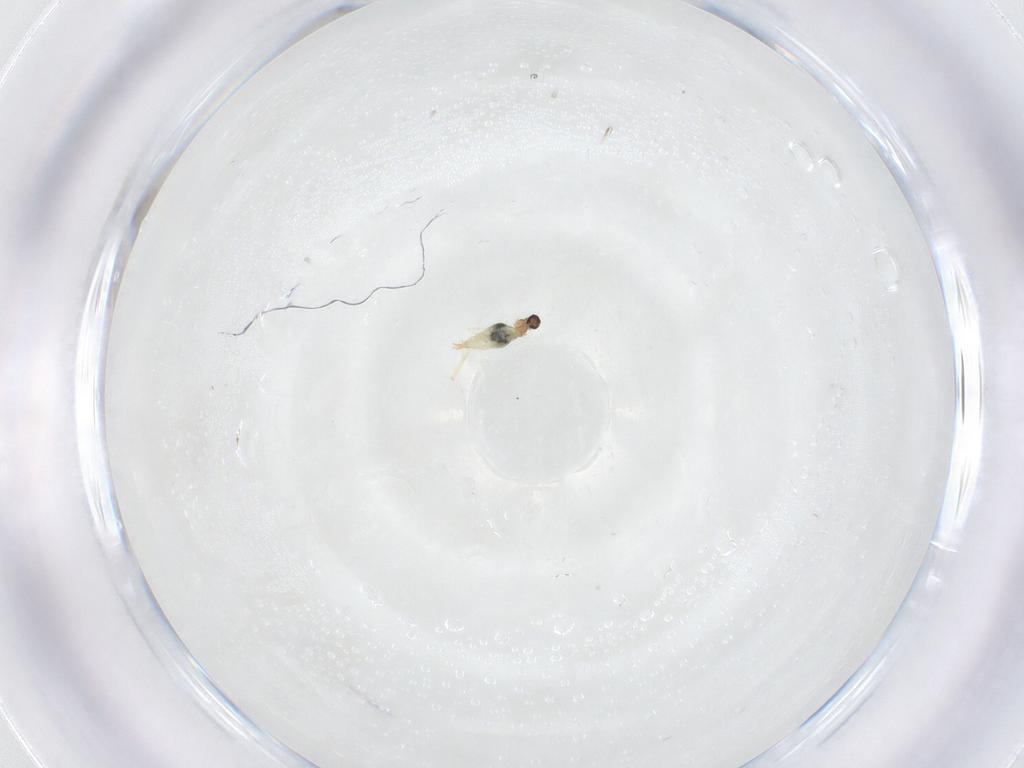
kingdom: Animalia
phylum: Arthropoda
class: Insecta
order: Diptera
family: Cecidomyiidae
